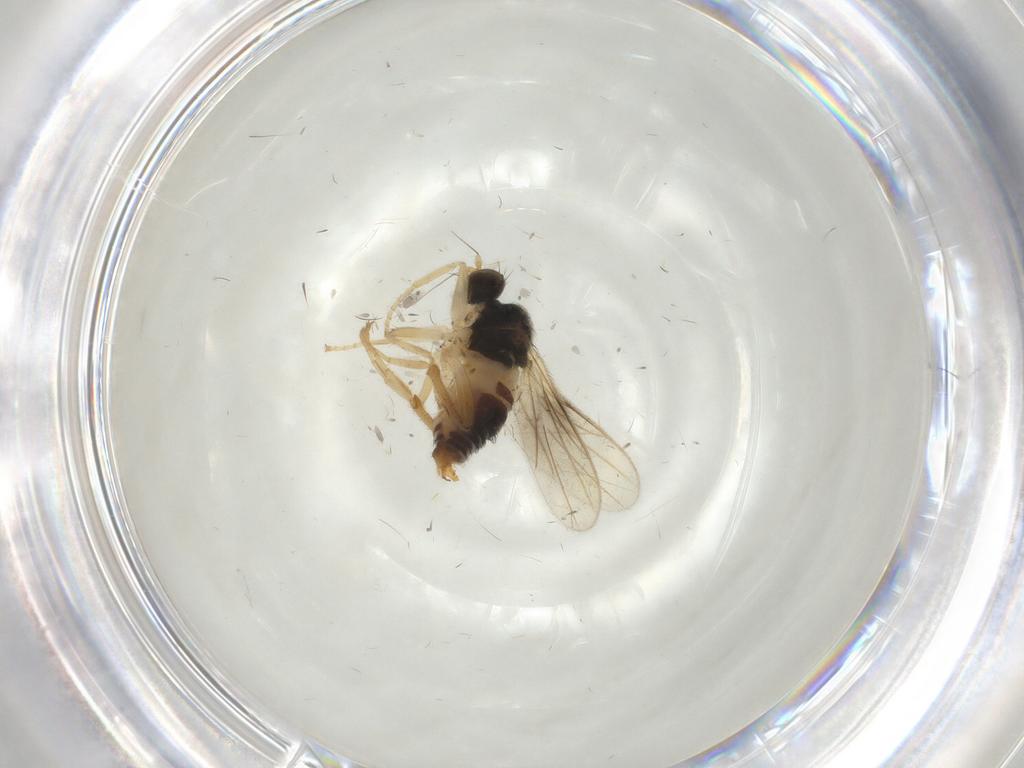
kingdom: Animalia
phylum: Arthropoda
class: Insecta
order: Diptera
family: Hybotidae
